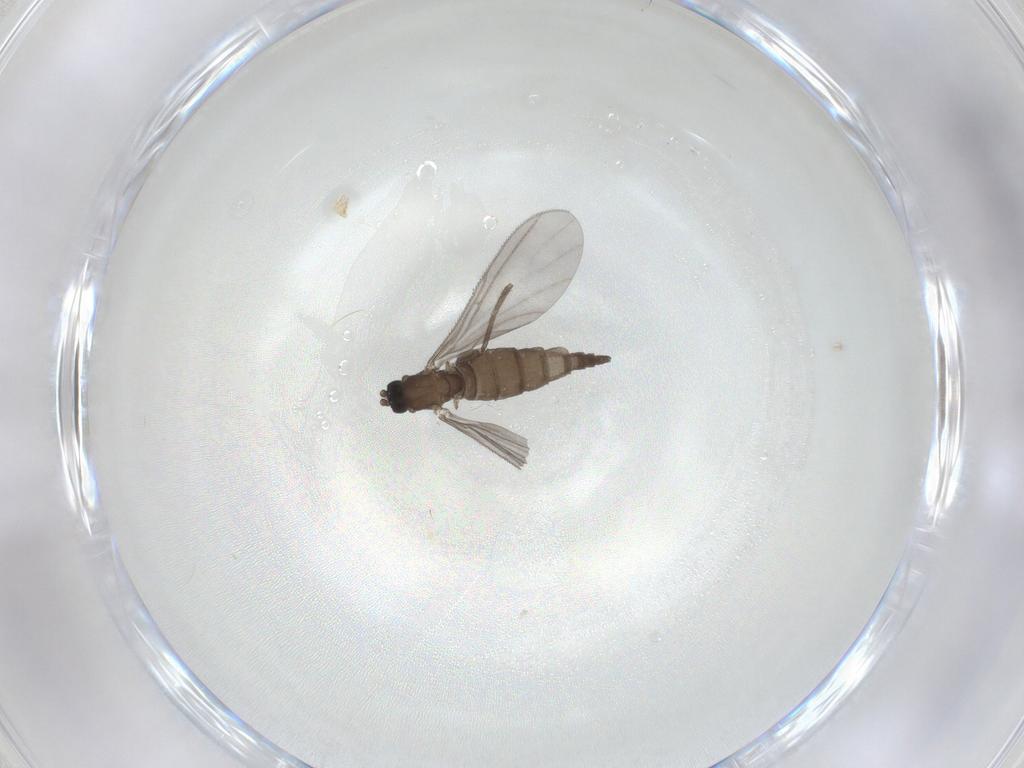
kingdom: Animalia
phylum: Arthropoda
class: Insecta
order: Diptera
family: Sciaridae
